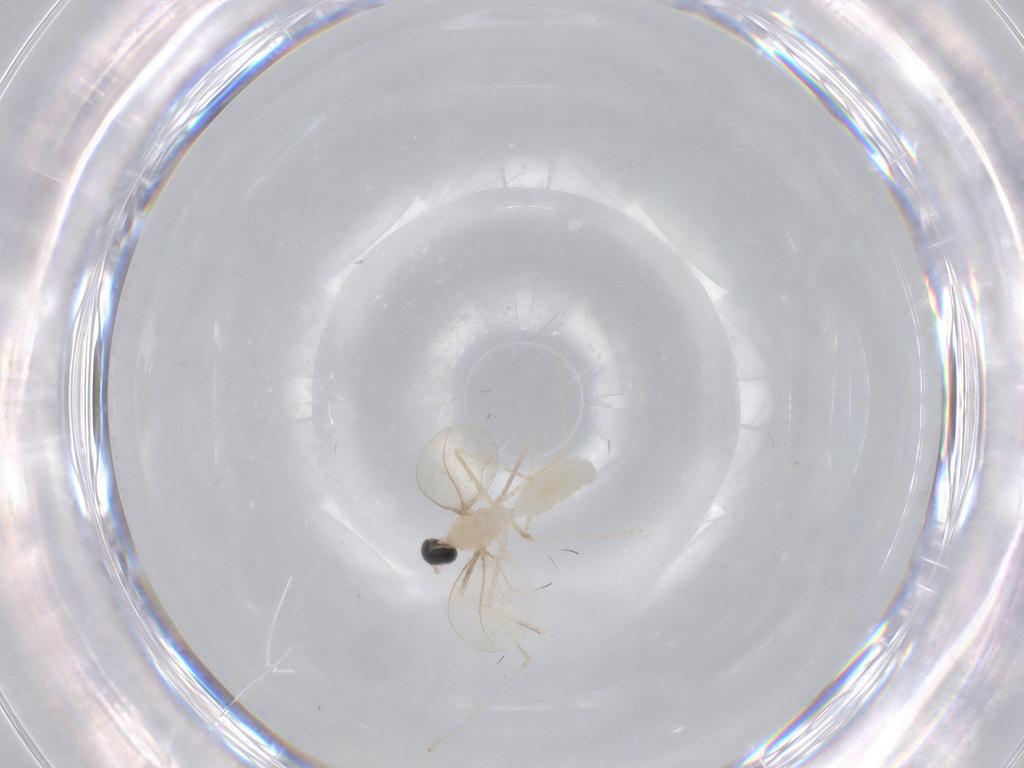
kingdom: Animalia
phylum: Arthropoda
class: Insecta
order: Diptera
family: Cecidomyiidae
